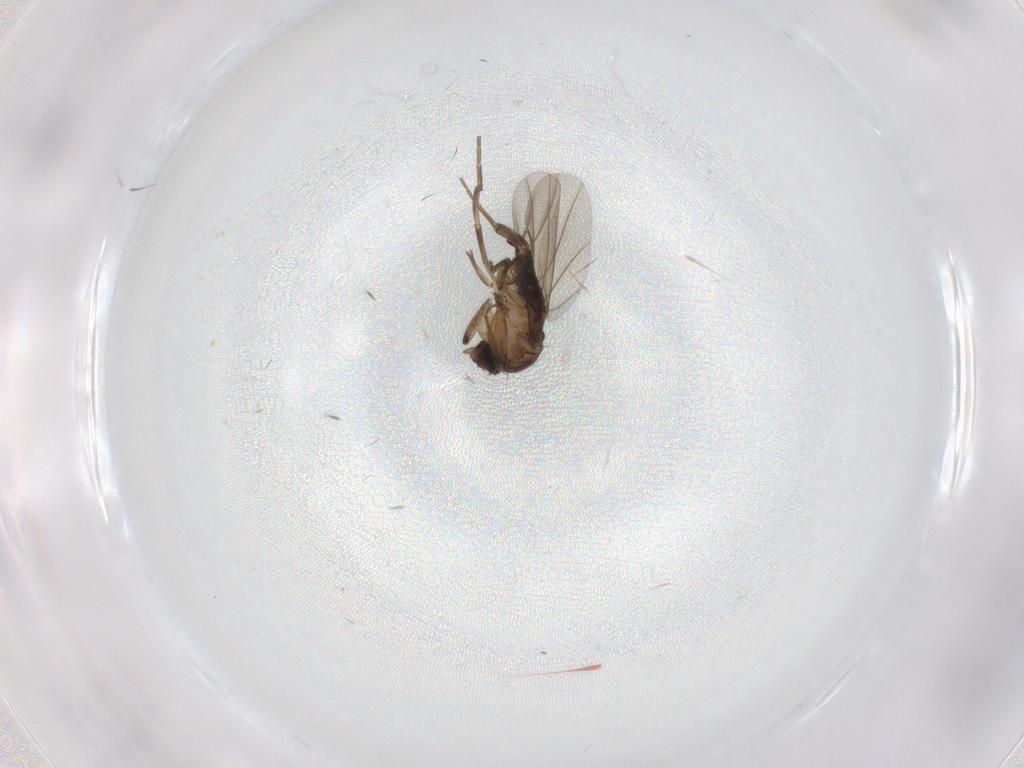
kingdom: Animalia
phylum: Arthropoda
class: Insecta
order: Diptera
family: Phoridae
